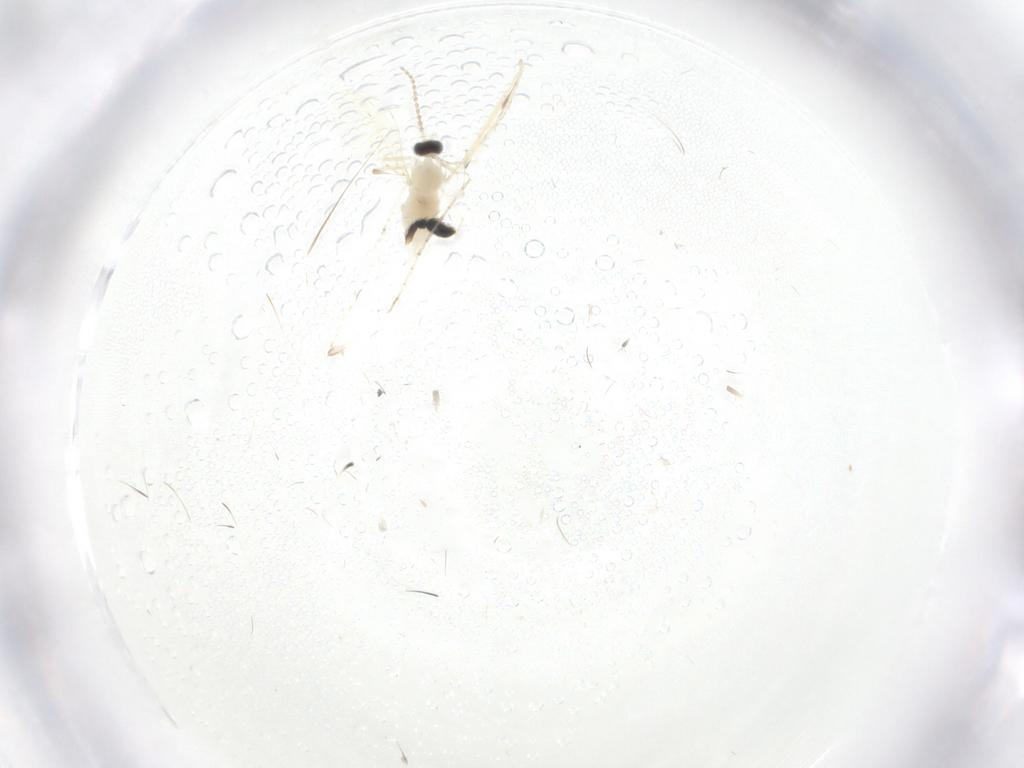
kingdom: Animalia
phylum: Arthropoda
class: Insecta
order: Diptera
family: Cecidomyiidae
